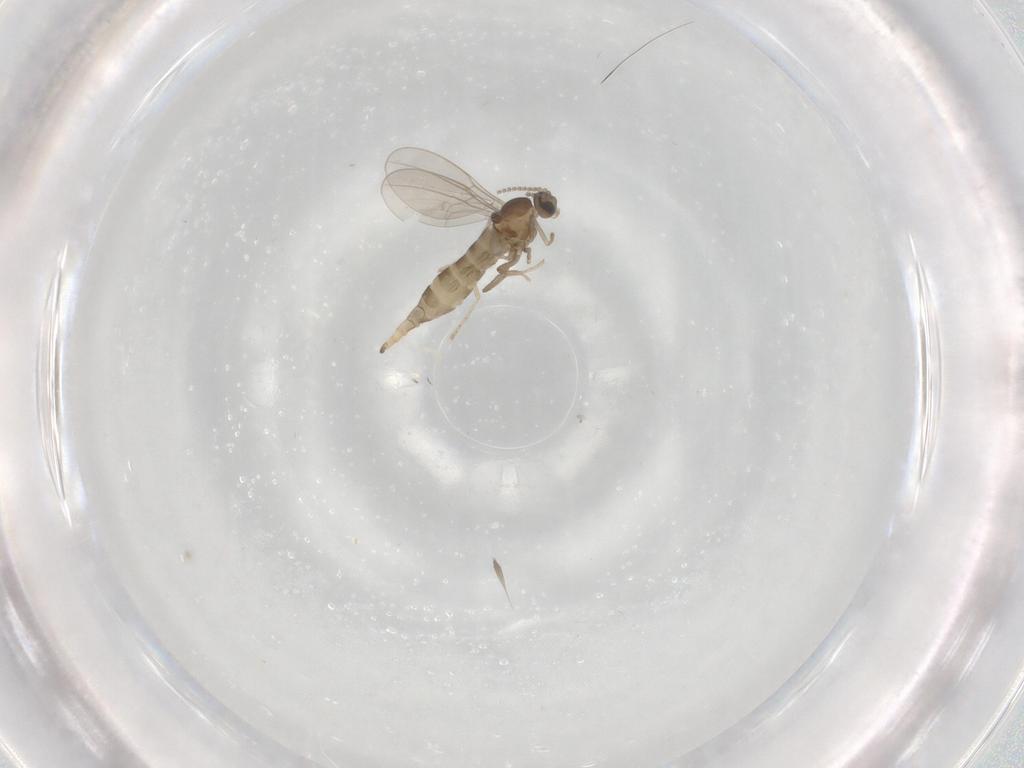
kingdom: Animalia
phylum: Arthropoda
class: Insecta
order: Diptera
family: Cecidomyiidae
